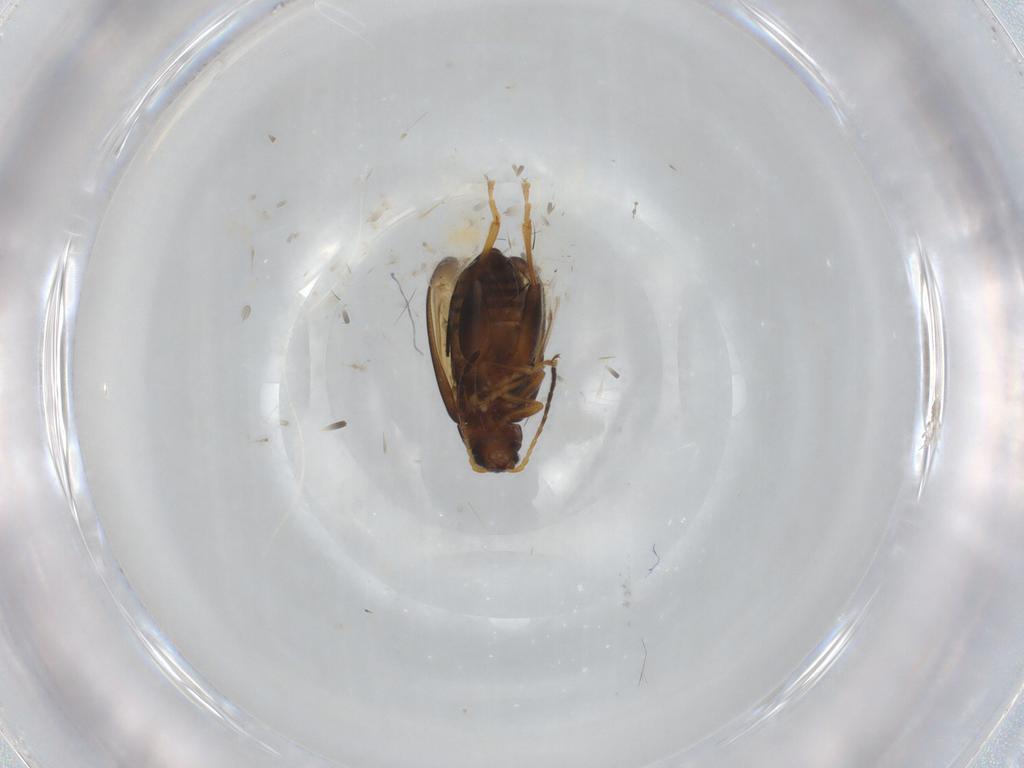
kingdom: Animalia
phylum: Arthropoda
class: Insecta
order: Coleoptera
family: Chrysomelidae
